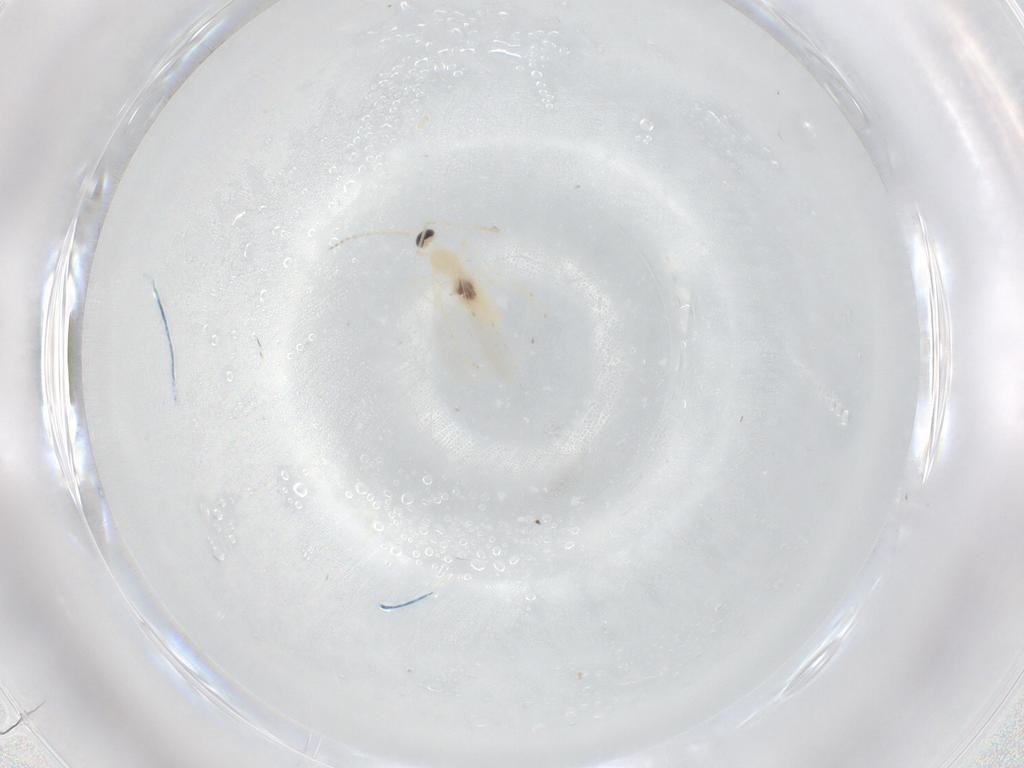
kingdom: Animalia
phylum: Arthropoda
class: Insecta
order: Diptera
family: Cecidomyiidae
